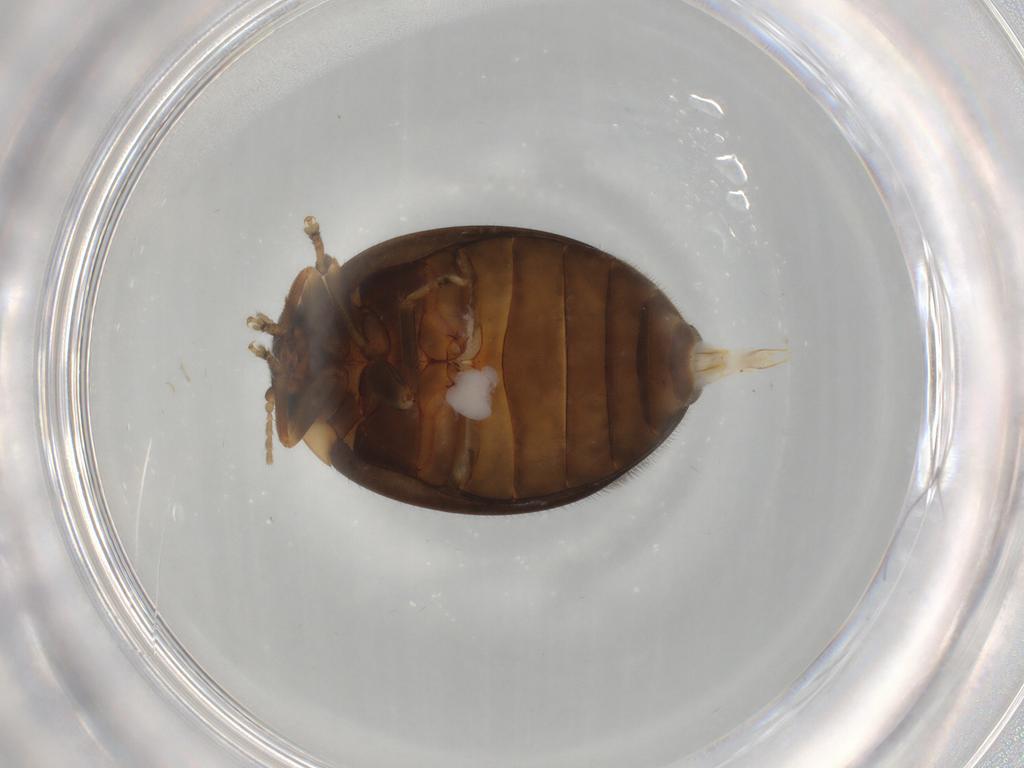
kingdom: Animalia
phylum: Arthropoda
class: Insecta
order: Coleoptera
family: Scirtidae
